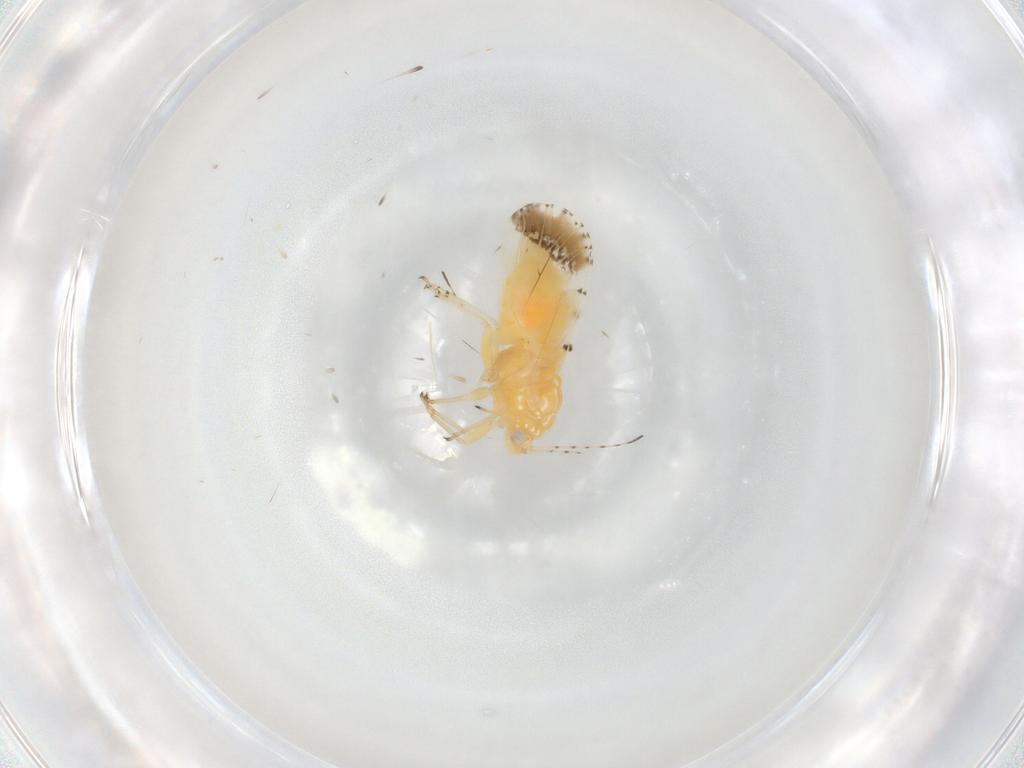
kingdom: Animalia
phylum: Arthropoda
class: Insecta
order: Hemiptera
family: Psyllidae
